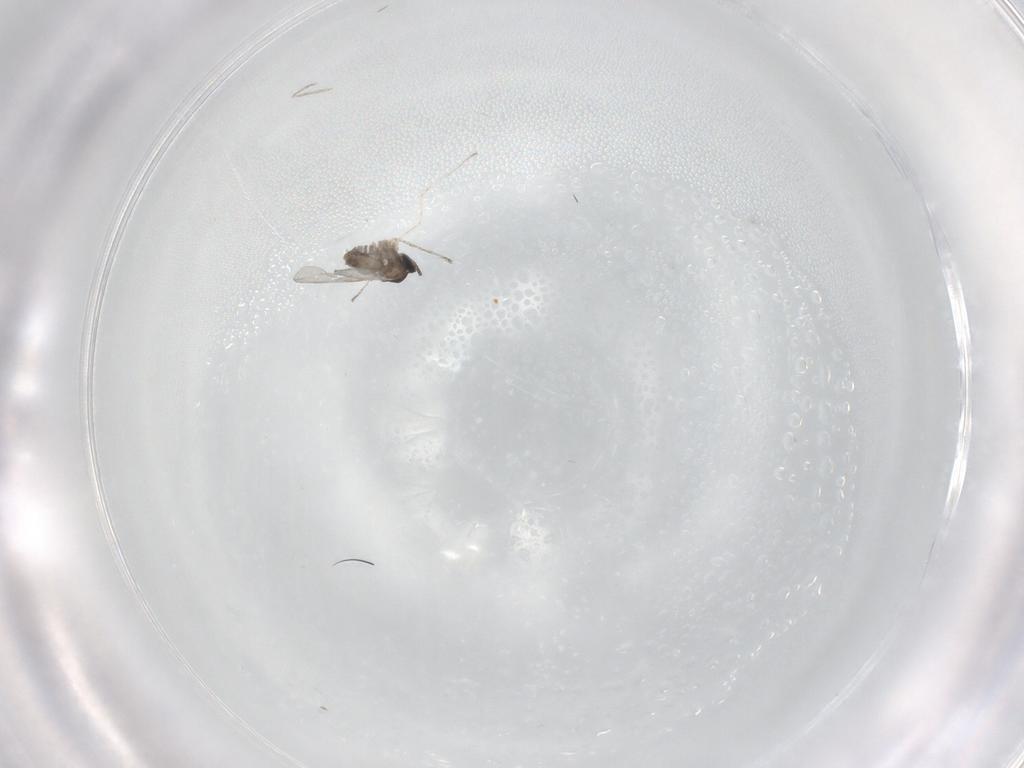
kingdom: Animalia
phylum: Arthropoda
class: Insecta
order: Diptera
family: Cecidomyiidae
